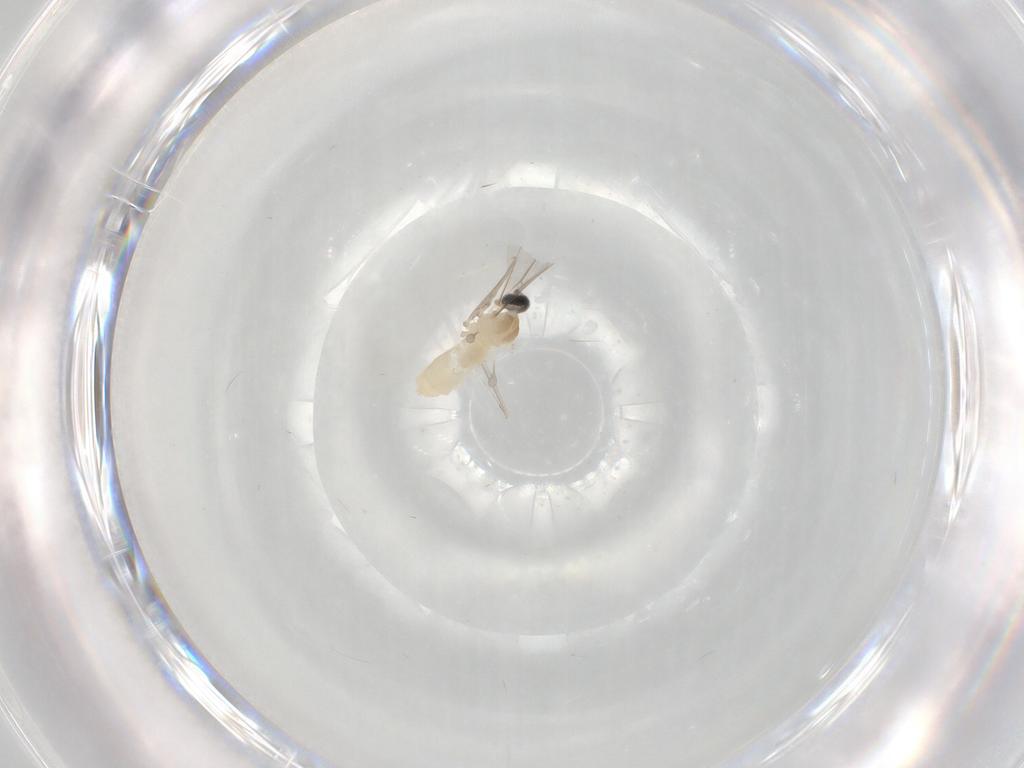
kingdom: Animalia
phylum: Arthropoda
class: Insecta
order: Diptera
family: Cecidomyiidae
